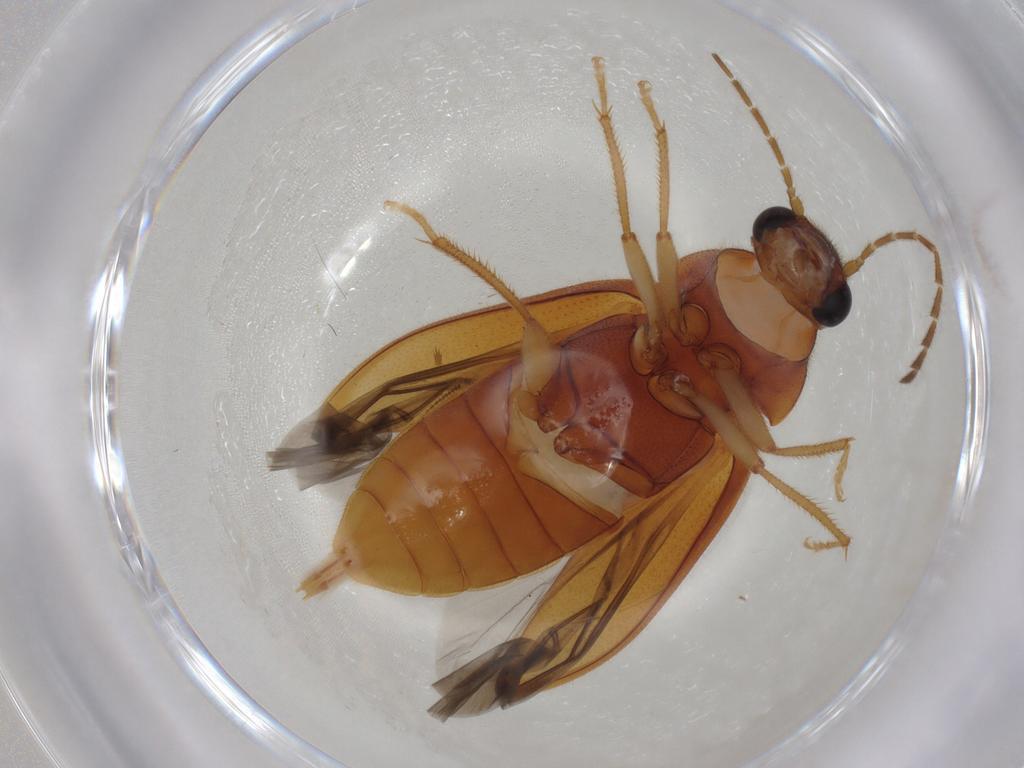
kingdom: Animalia
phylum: Arthropoda
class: Insecta
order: Coleoptera
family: Ptilodactylidae
